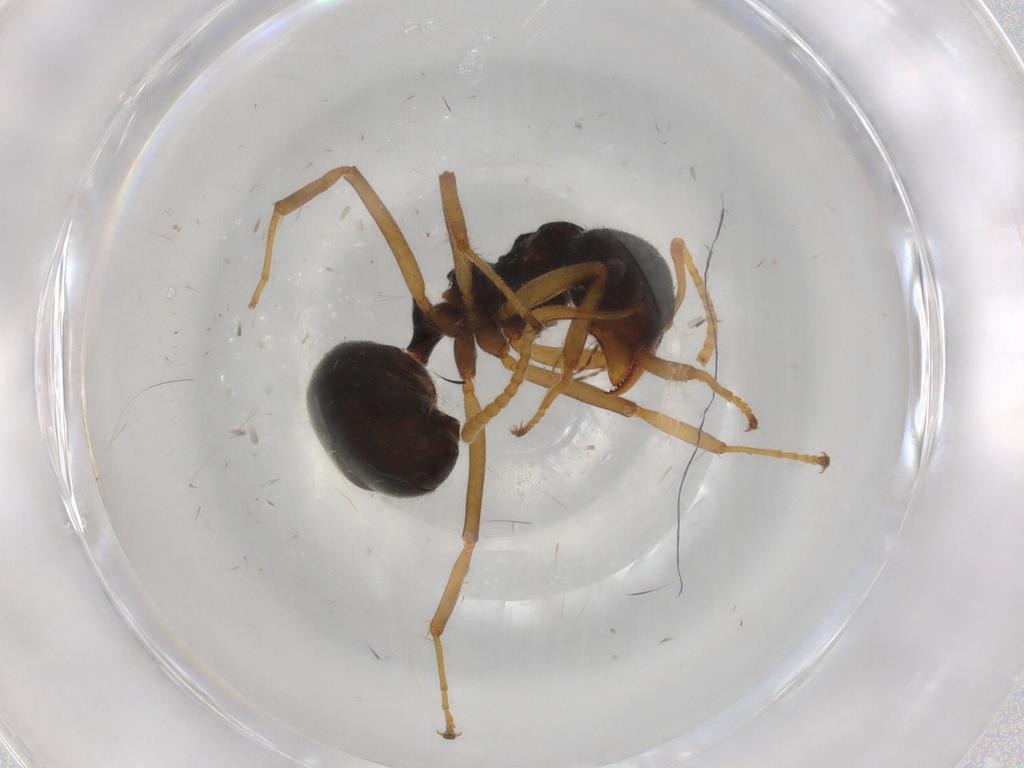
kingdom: Animalia
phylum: Arthropoda
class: Insecta
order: Hymenoptera
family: Formicidae
